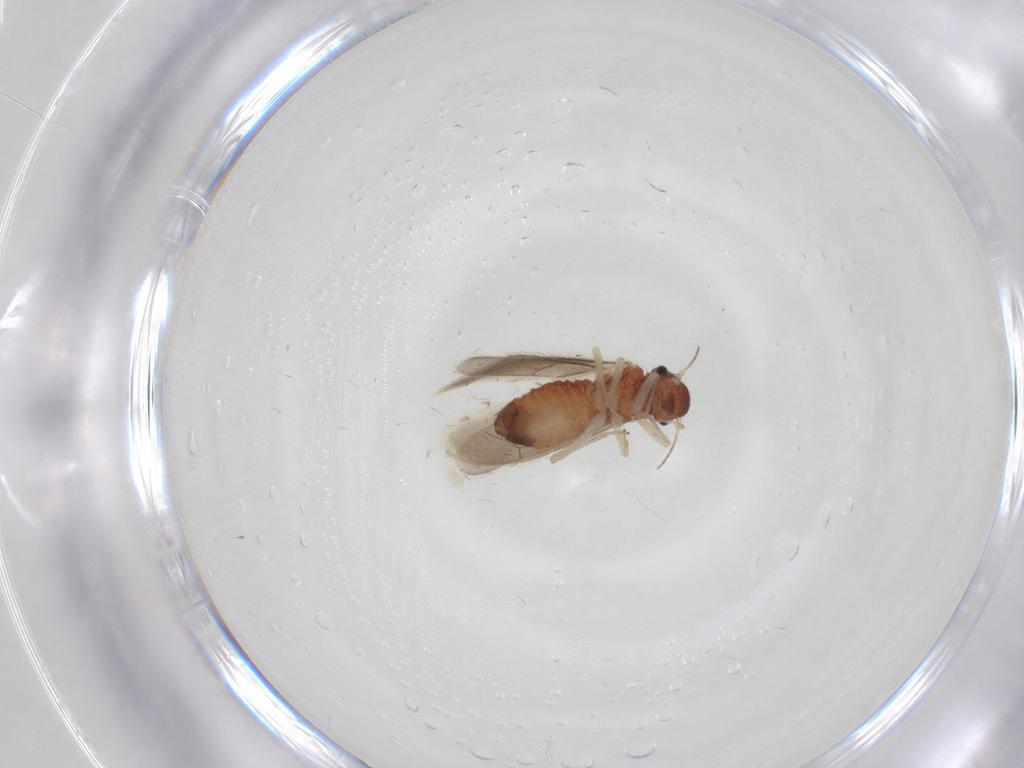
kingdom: Animalia
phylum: Arthropoda
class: Insecta
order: Psocodea
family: Archipsocidae
